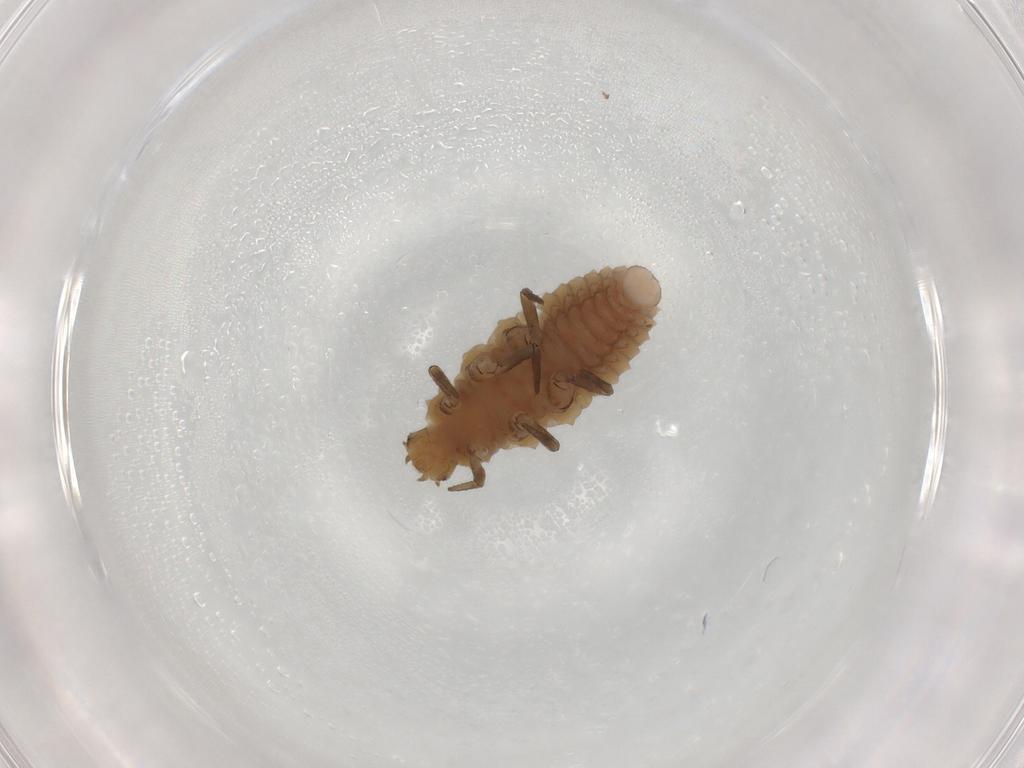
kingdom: Animalia
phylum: Arthropoda
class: Insecta
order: Coleoptera
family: Coccinellidae
